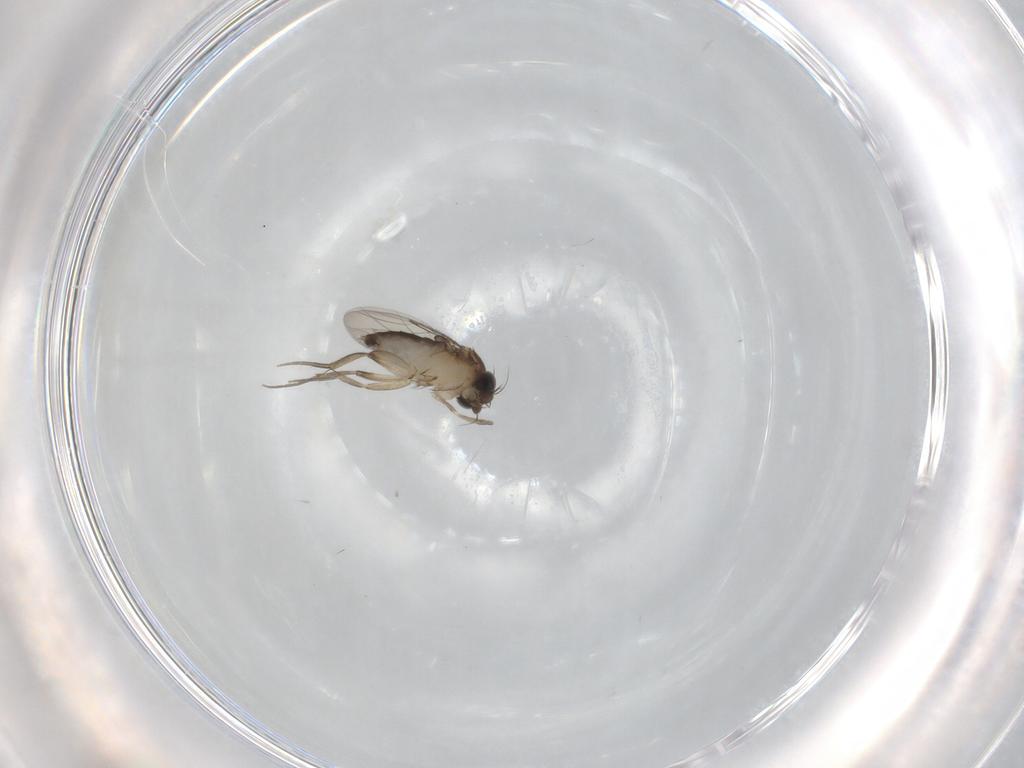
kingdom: Animalia
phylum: Arthropoda
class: Insecta
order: Diptera
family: Phoridae
